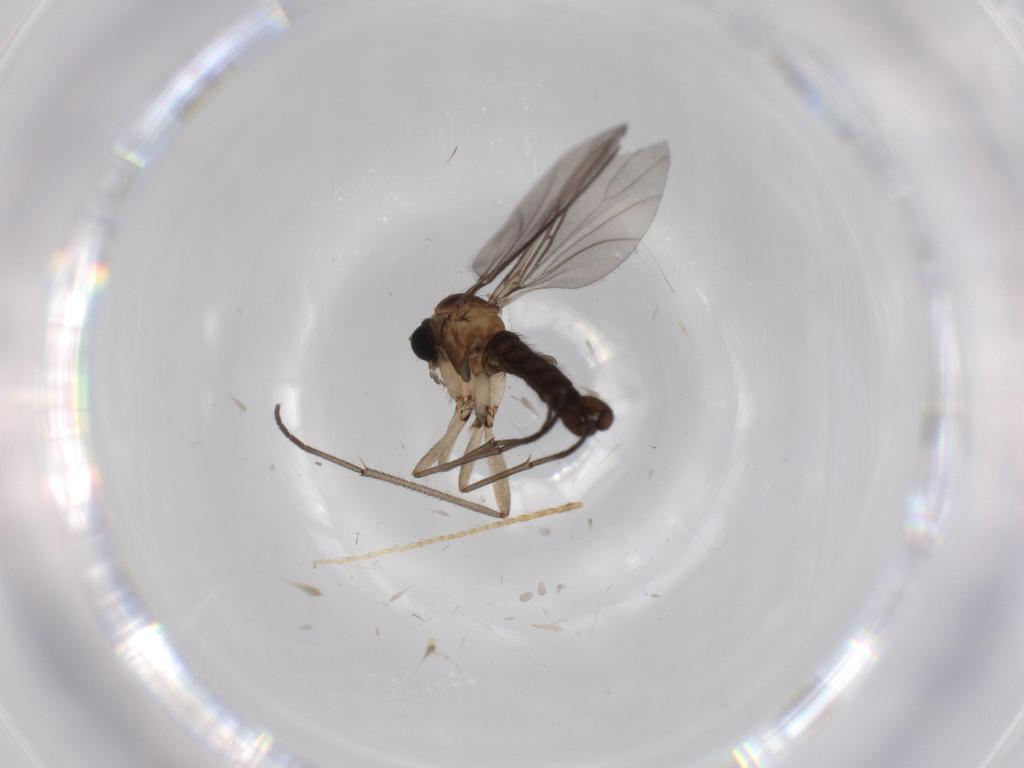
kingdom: Animalia
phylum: Arthropoda
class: Insecta
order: Diptera
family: Sciaridae
